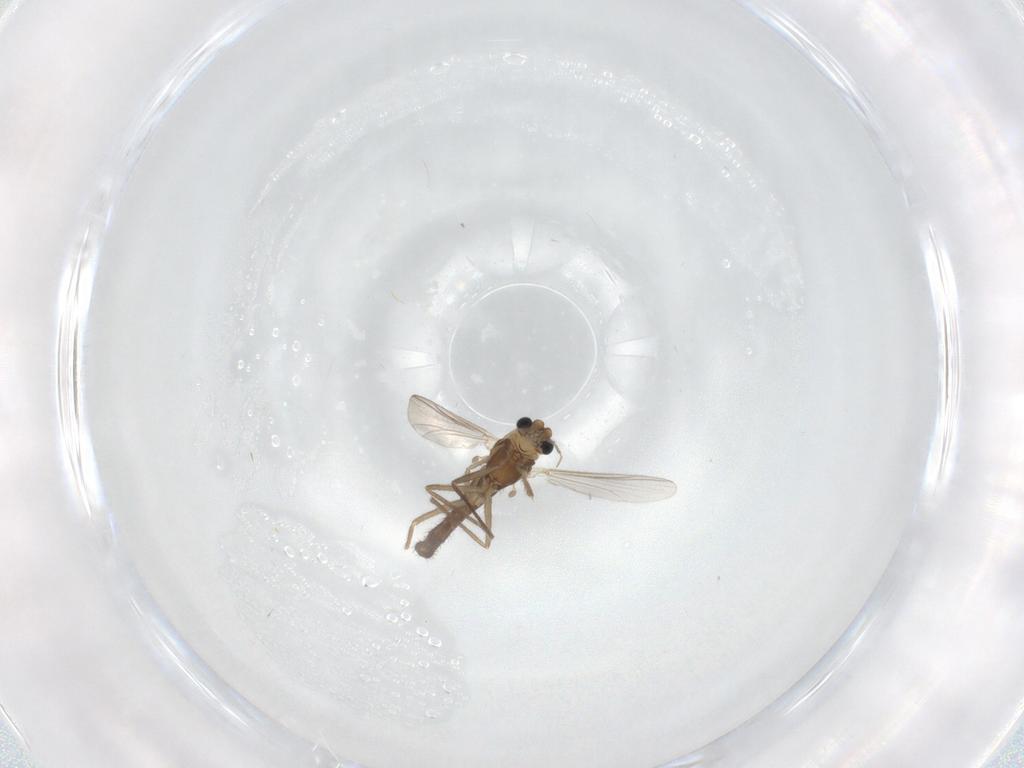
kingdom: Animalia
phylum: Arthropoda
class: Insecta
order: Diptera
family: Chironomidae
